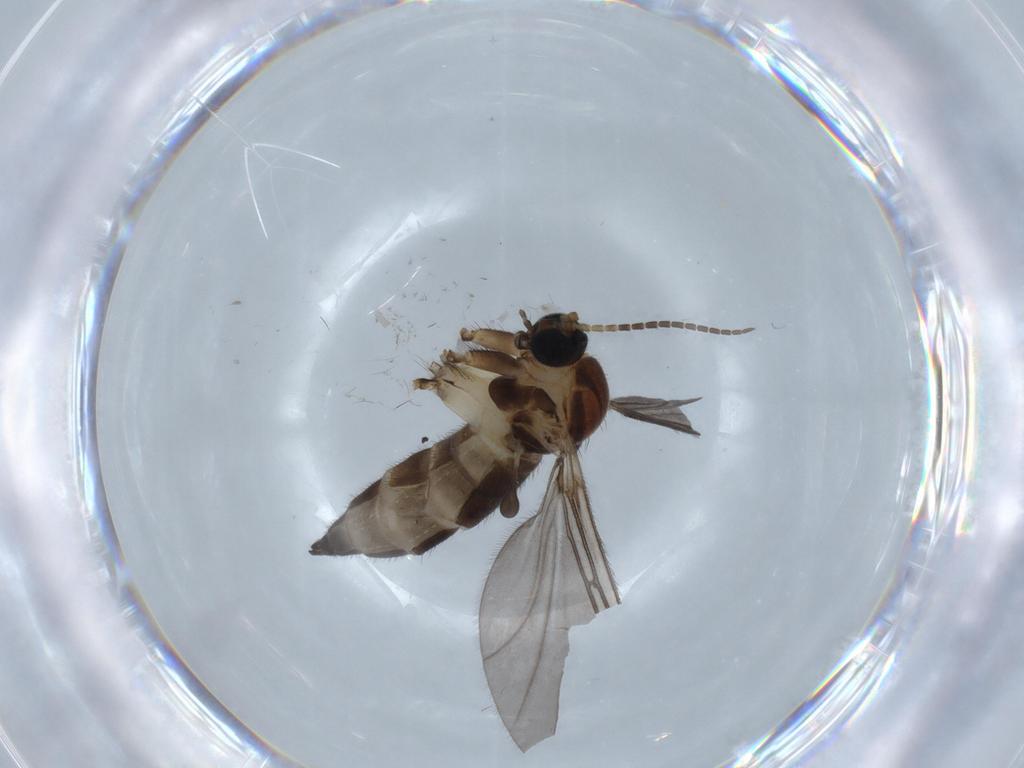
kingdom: Animalia
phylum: Arthropoda
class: Insecta
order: Diptera
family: Sciaridae
